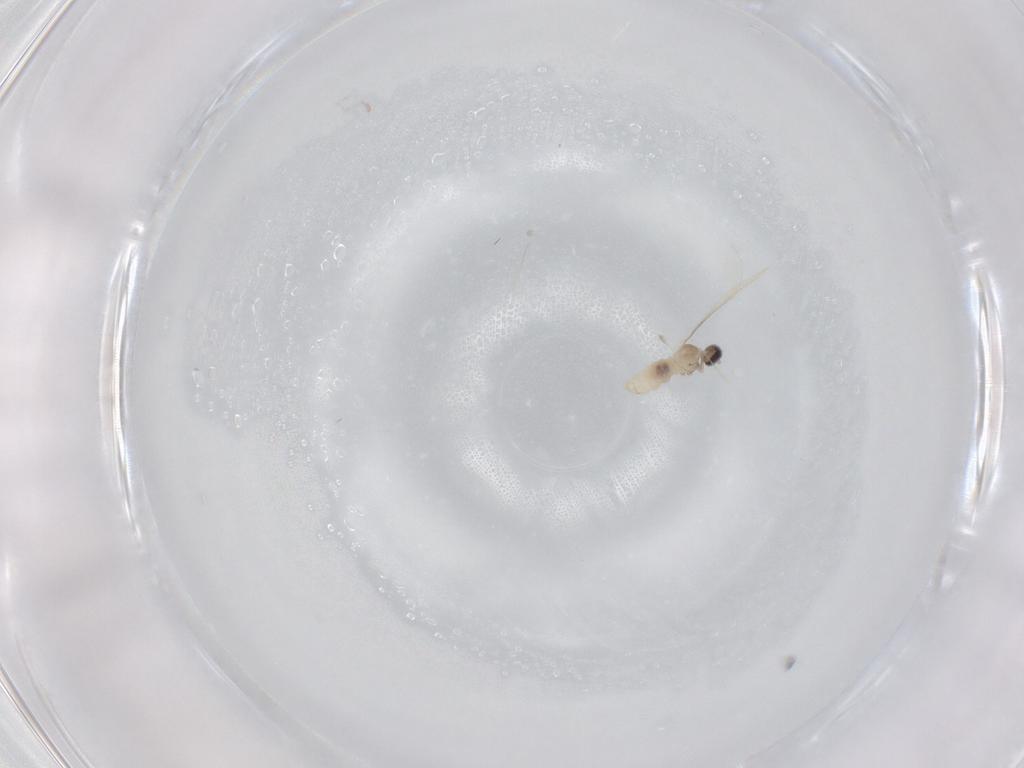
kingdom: Animalia
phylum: Arthropoda
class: Insecta
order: Diptera
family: Cecidomyiidae
